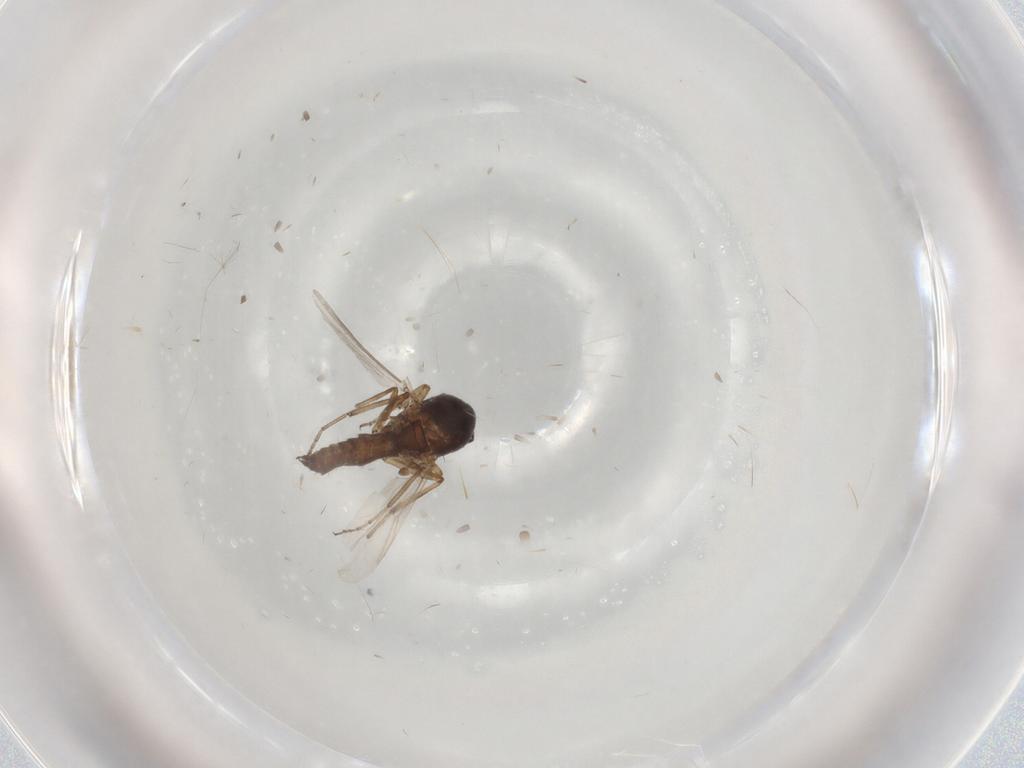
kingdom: Animalia
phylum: Arthropoda
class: Insecta
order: Diptera
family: Ceratopogonidae
